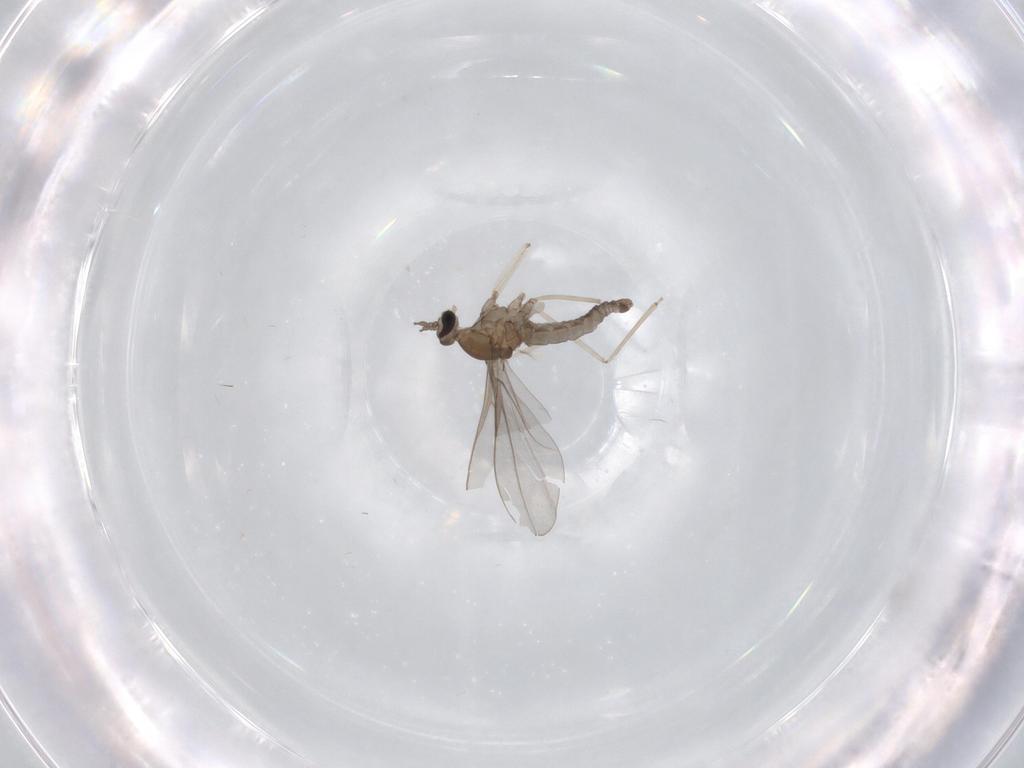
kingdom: Animalia
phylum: Arthropoda
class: Insecta
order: Diptera
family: Cecidomyiidae
